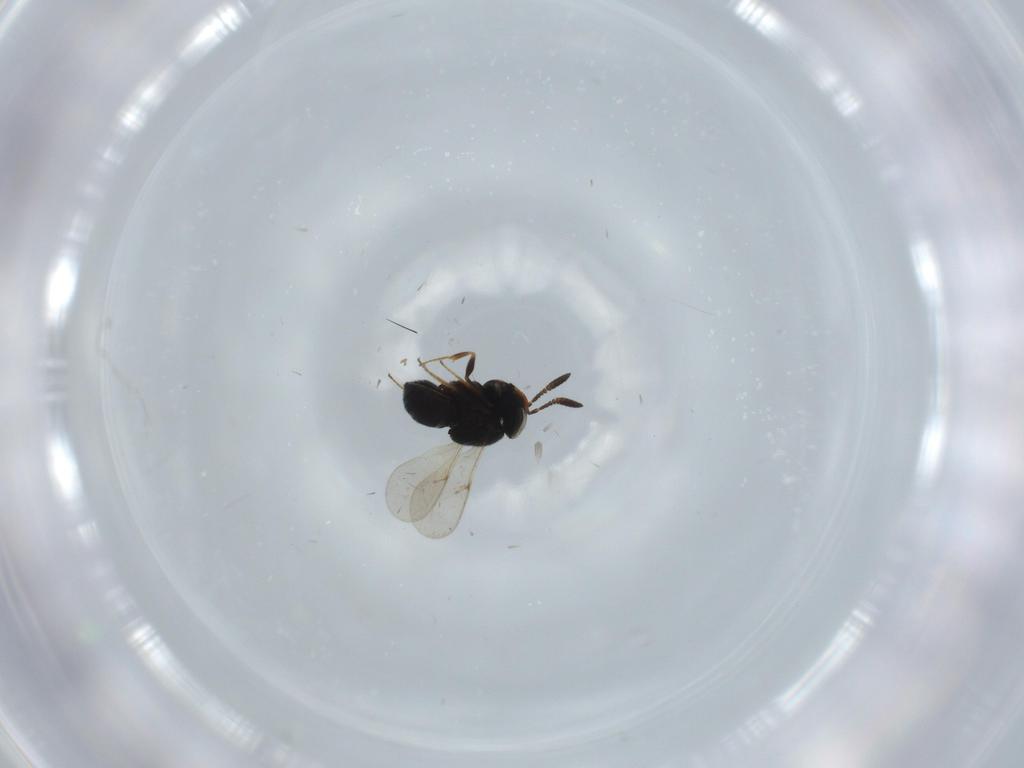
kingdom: Animalia
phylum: Arthropoda
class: Insecta
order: Hymenoptera
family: Scelionidae
